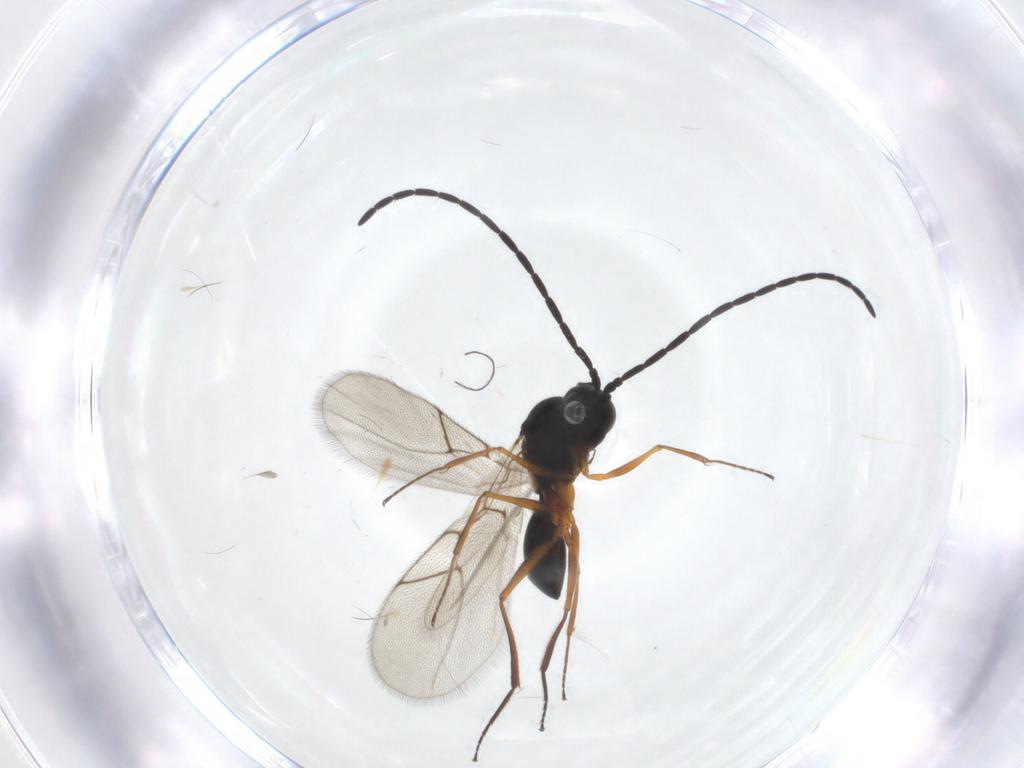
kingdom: Animalia
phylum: Arthropoda
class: Insecta
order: Hymenoptera
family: Figitidae
